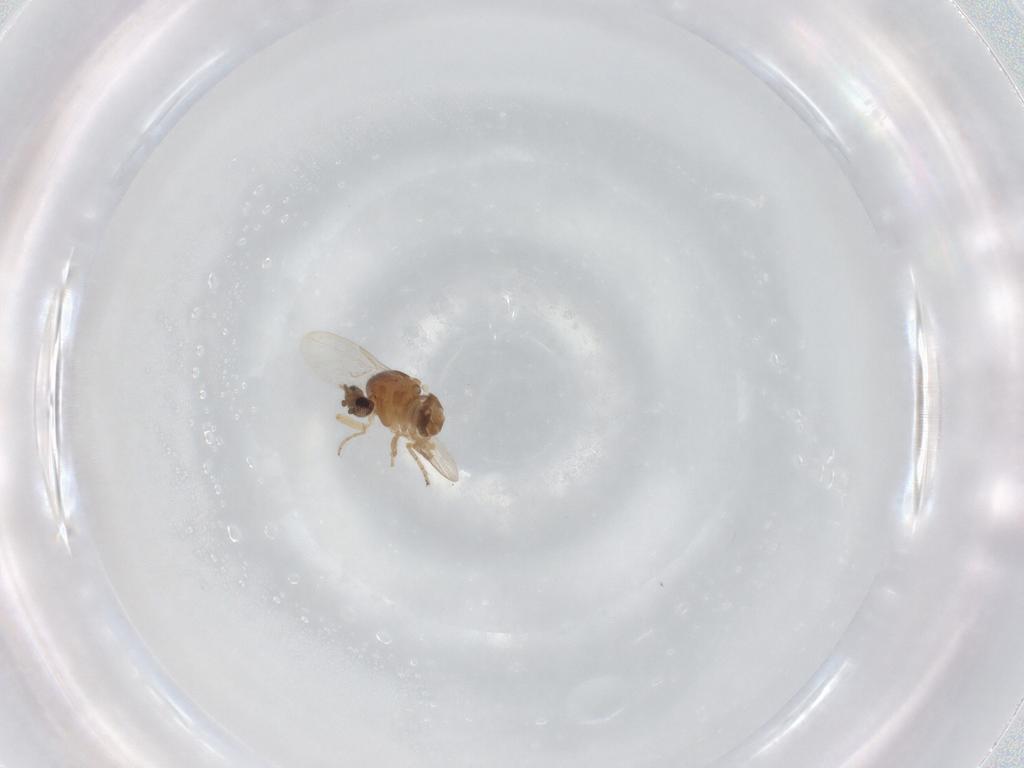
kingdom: Animalia
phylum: Arthropoda
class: Insecta
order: Diptera
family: Ceratopogonidae
